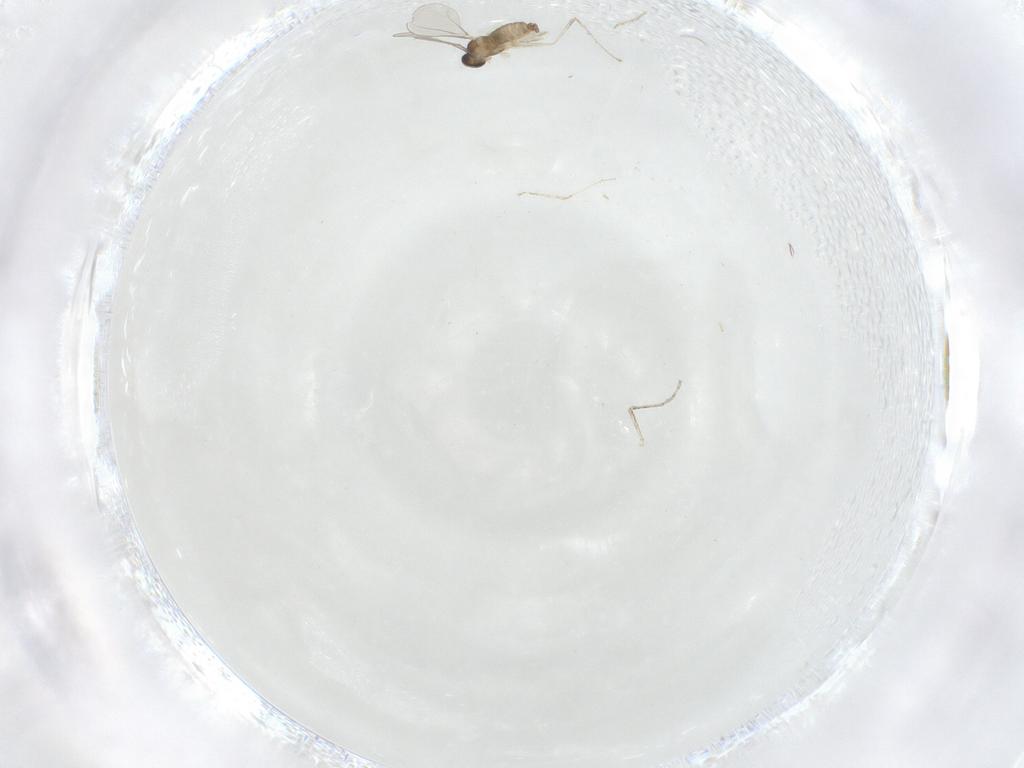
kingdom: Animalia
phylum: Arthropoda
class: Insecta
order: Diptera
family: Cecidomyiidae
